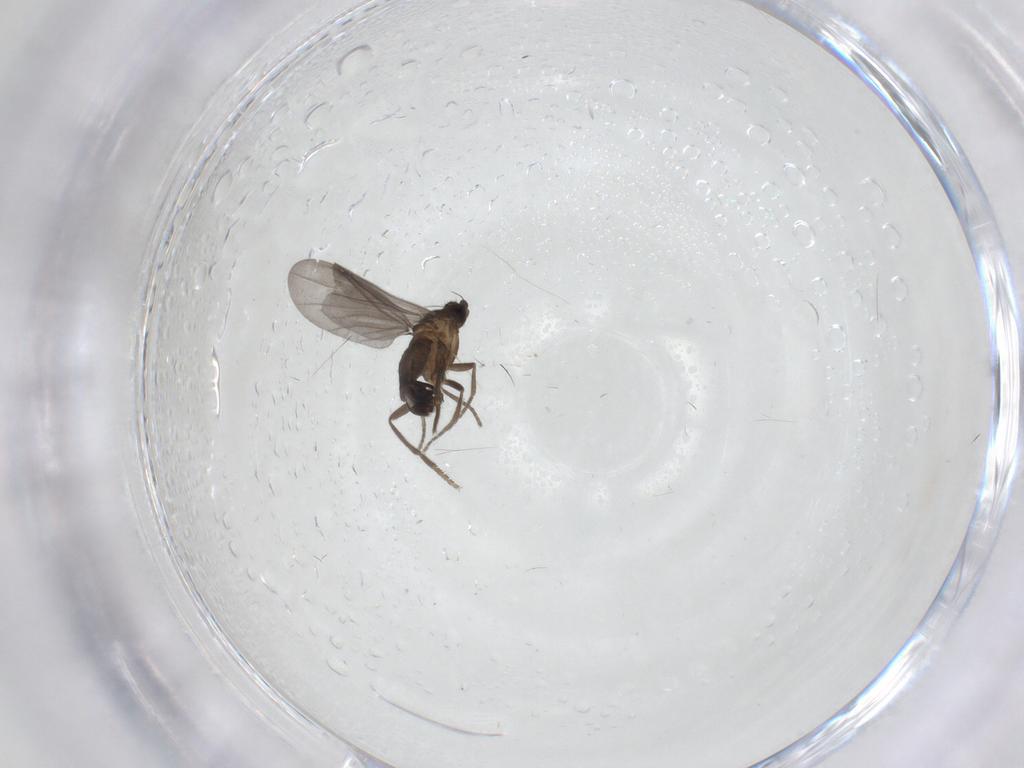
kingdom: Animalia
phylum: Arthropoda
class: Insecta
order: Diptera
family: Phoridae
